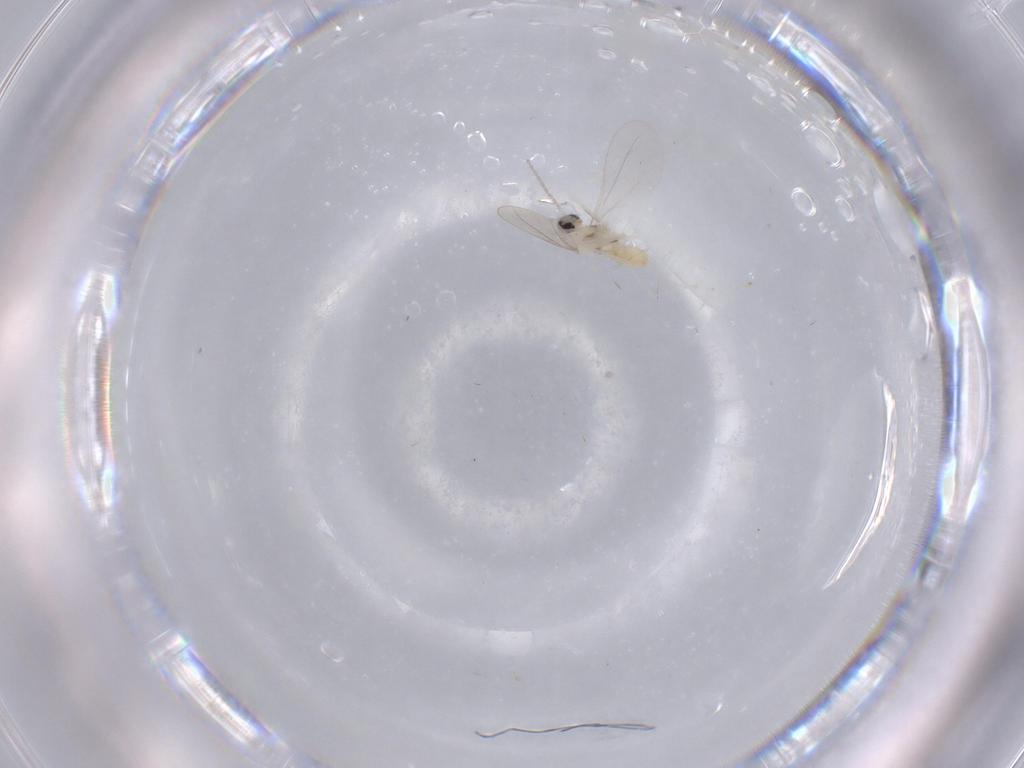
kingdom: Animalia
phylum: Arthropoda
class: Insecta
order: Diptera
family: Cecidomyiidae
